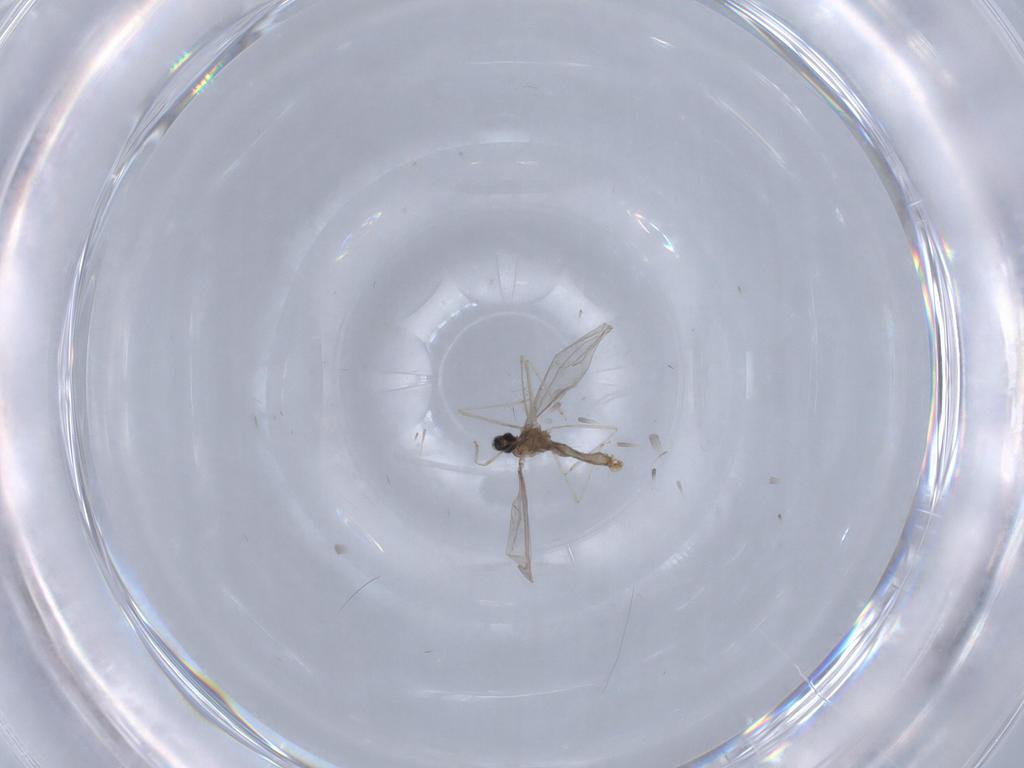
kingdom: Animalia
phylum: Arthropoda
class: Insecta
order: Diptera
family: Cecidomyiidae
